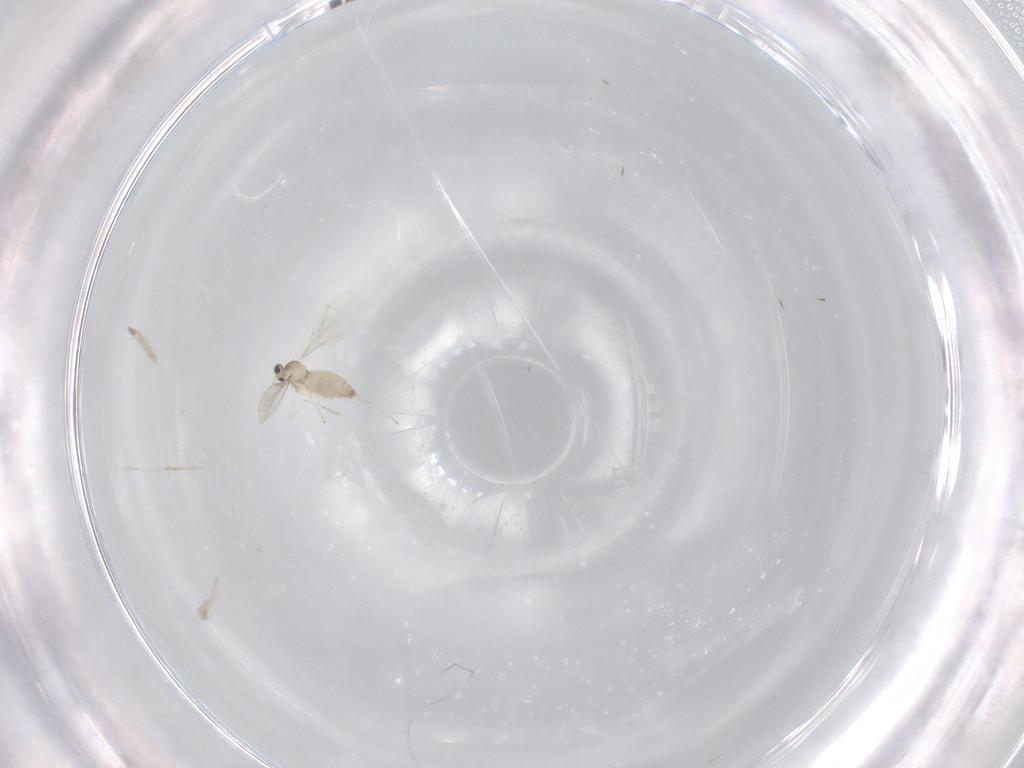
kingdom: Animalia
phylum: Arthropoda
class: Insecta
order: Diptera
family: Cecidomyiidae
